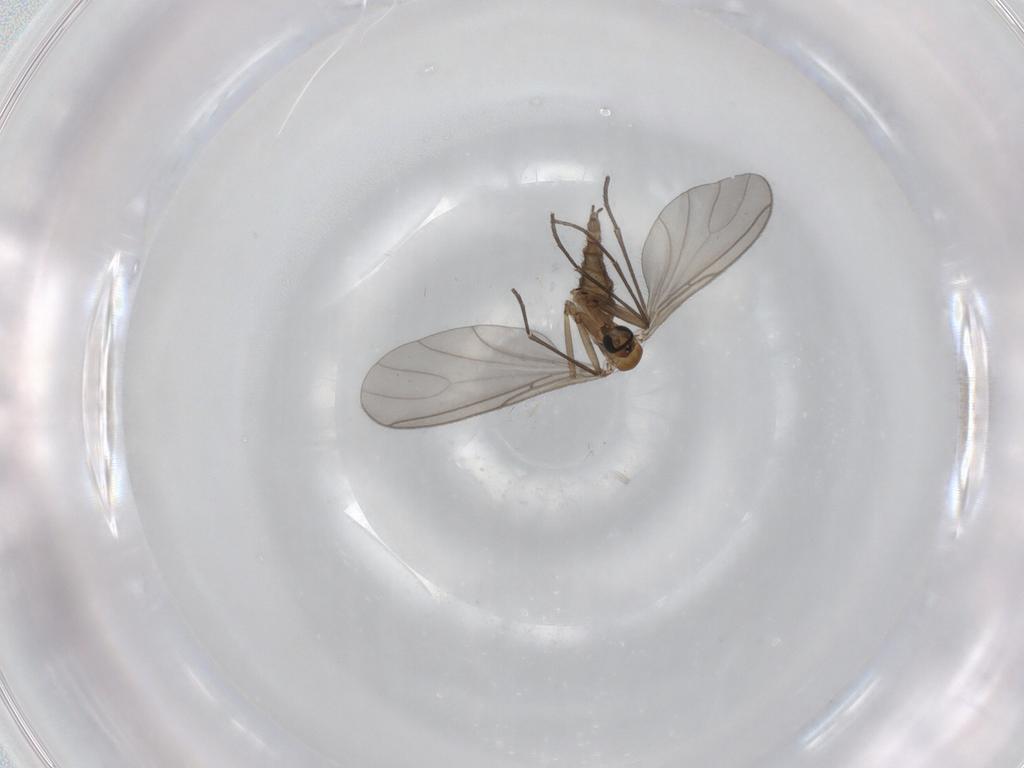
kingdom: Animalia
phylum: Arthropoda
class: Insecta
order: Diptera
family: Sciaridae
